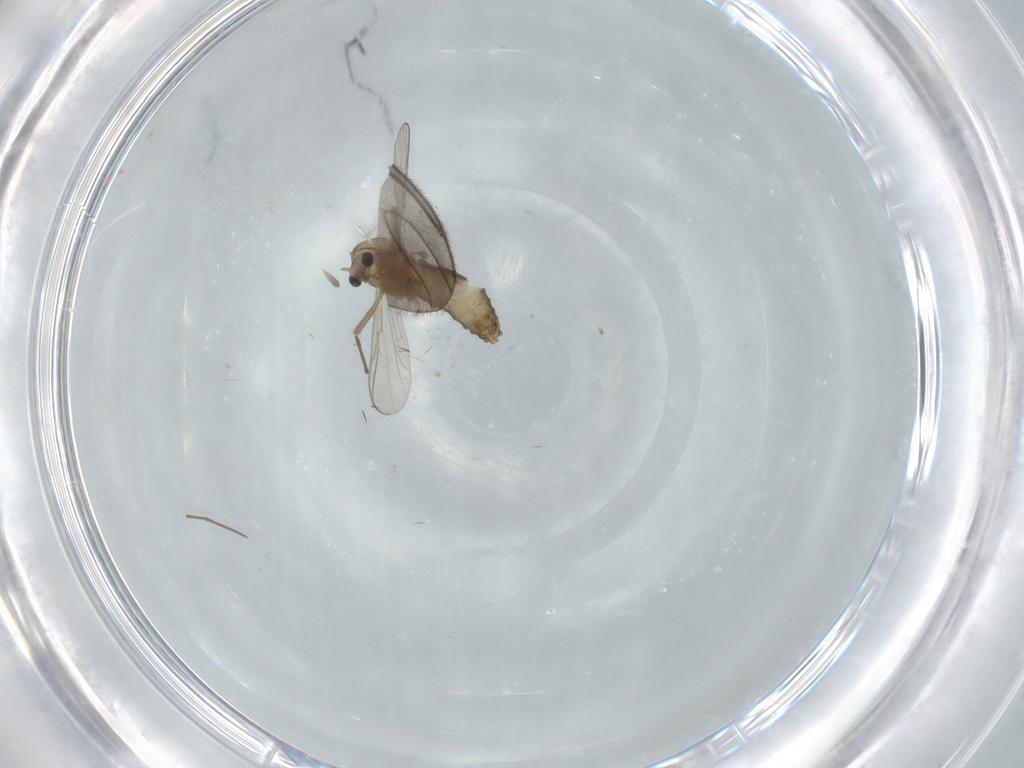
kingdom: Animalia
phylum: Arthropoda
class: Insecta
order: Diptera
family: Chironomidae
